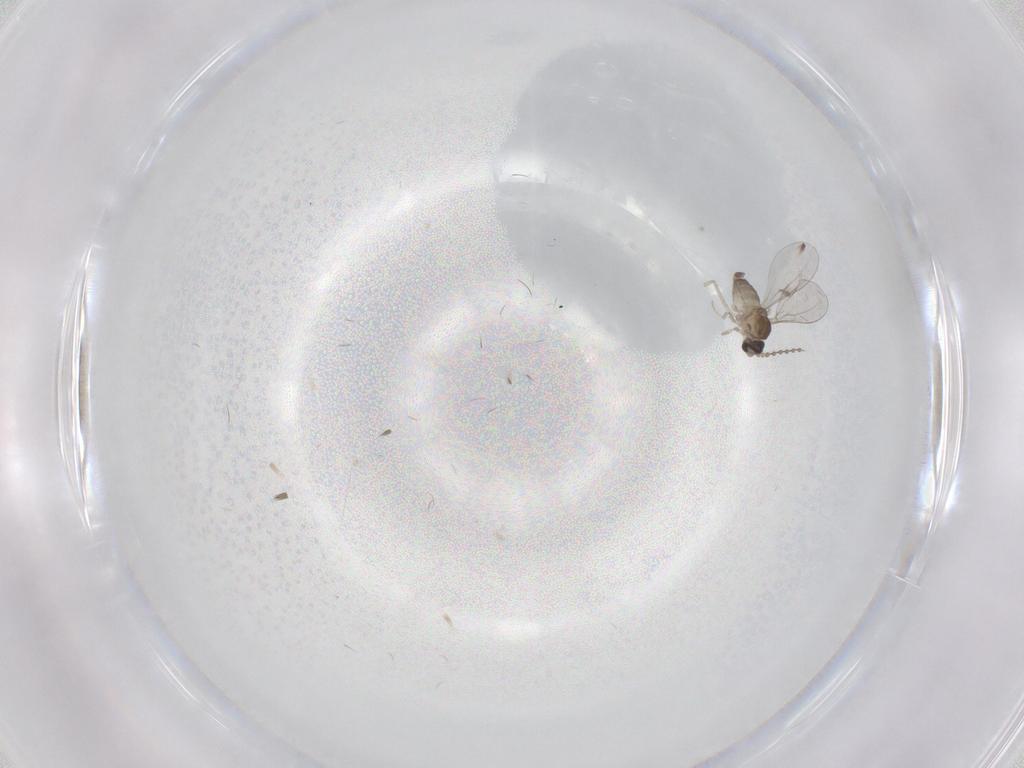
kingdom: Animalia
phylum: Arthropoda
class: Insecta
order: Diptera
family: Cecidomyiidae
